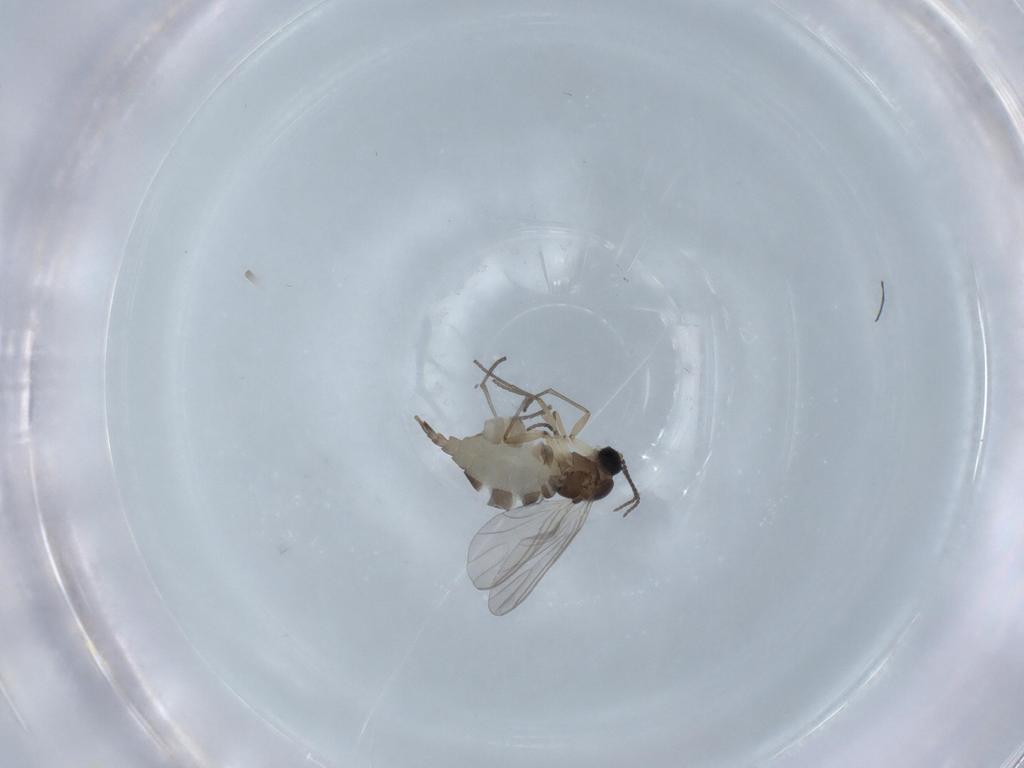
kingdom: Animalia
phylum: Arthropoda
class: Insecta
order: Diptera
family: Sciaridae
